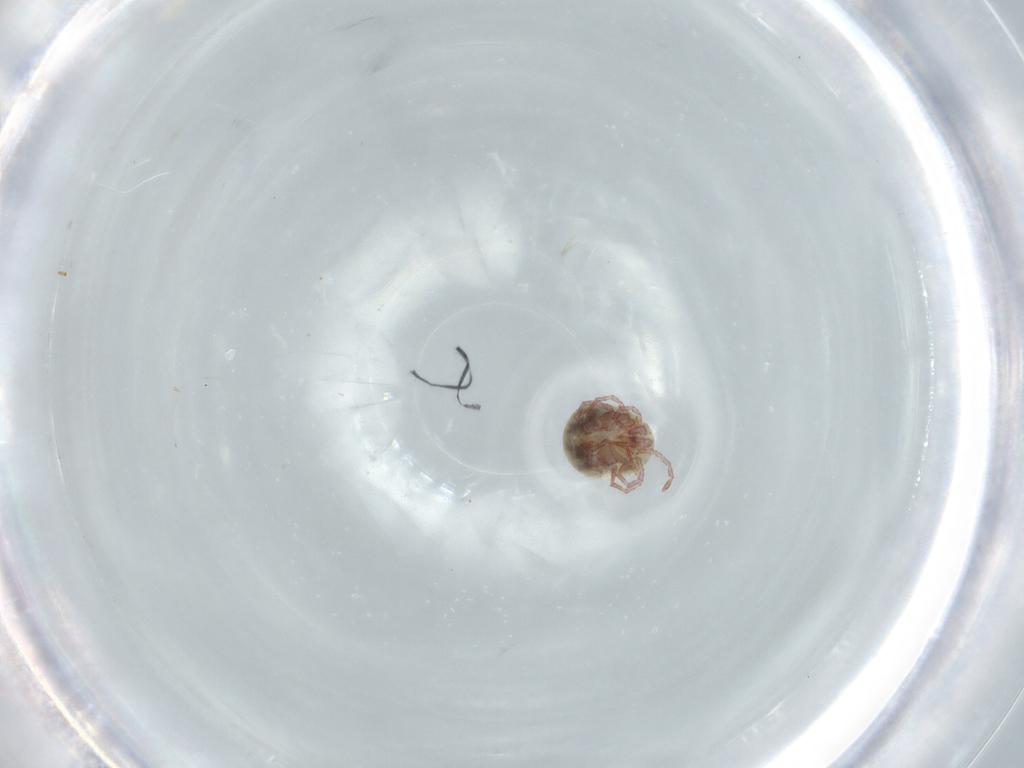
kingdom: Animalia
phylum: Arthropoda
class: Arachnida
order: Trombidiformes
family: Pionidae
